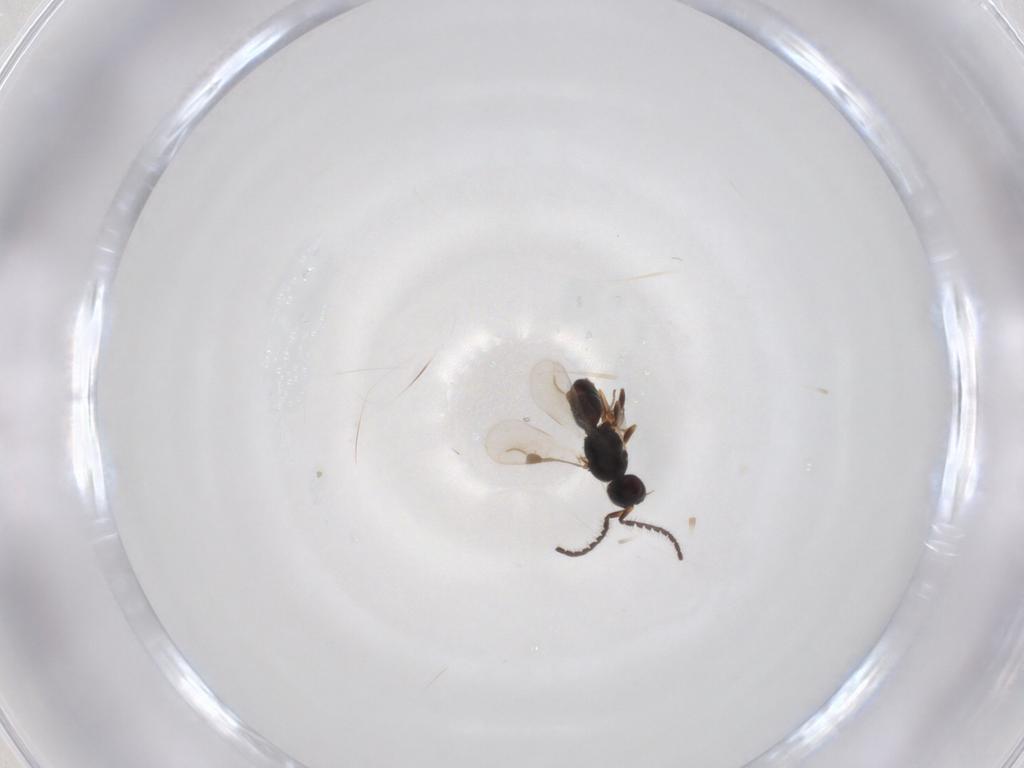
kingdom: Animalia
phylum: Arthropoda
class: Insecta
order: Hymenoptera
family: Pteromalidae
